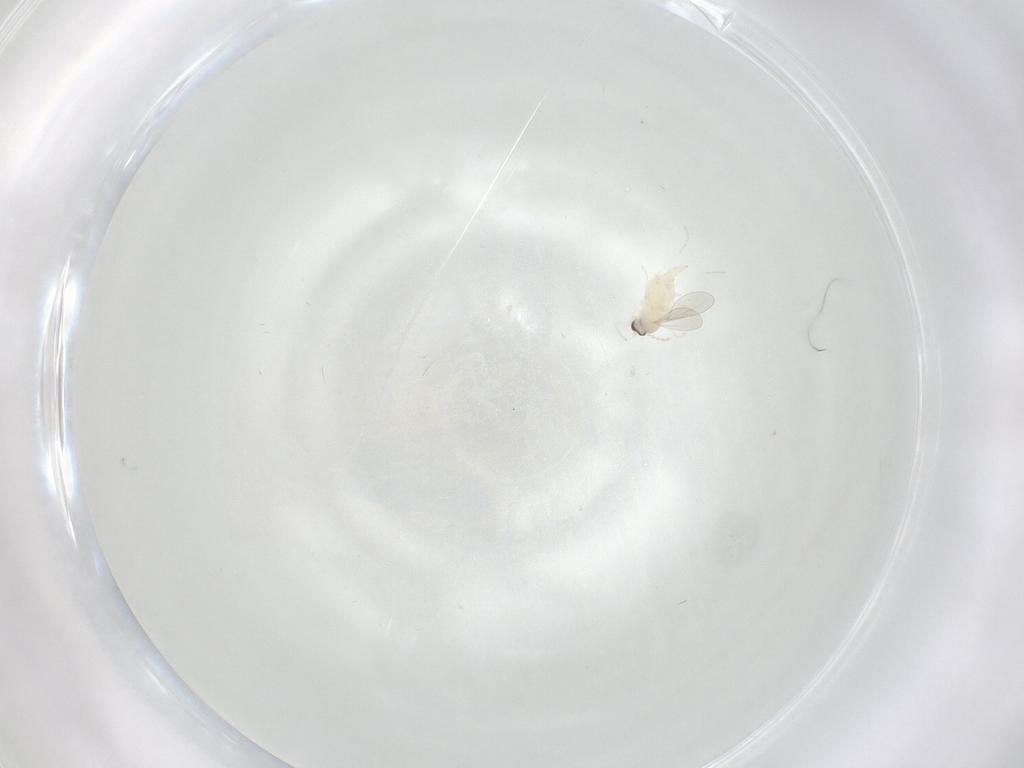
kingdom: Animalia
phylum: Arthropoda
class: Insecta
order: Diptera
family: Cecidomyiidae
